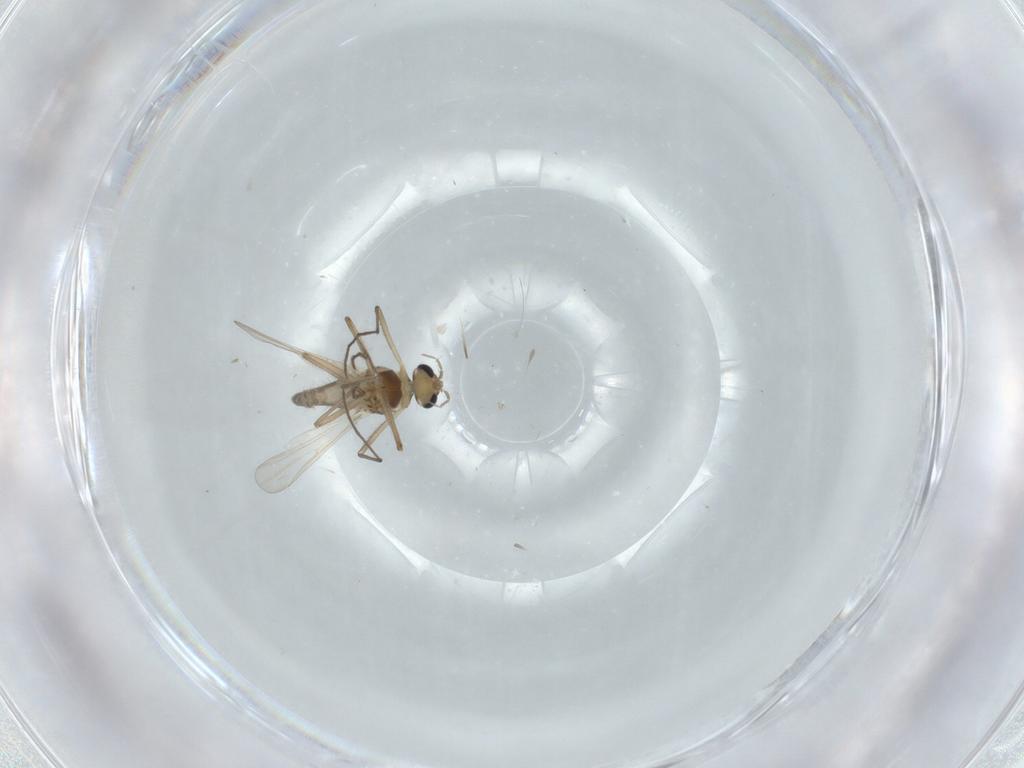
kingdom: Animalia
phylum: Arthropoda
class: Insecta
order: Diptera
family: Chironomidae
